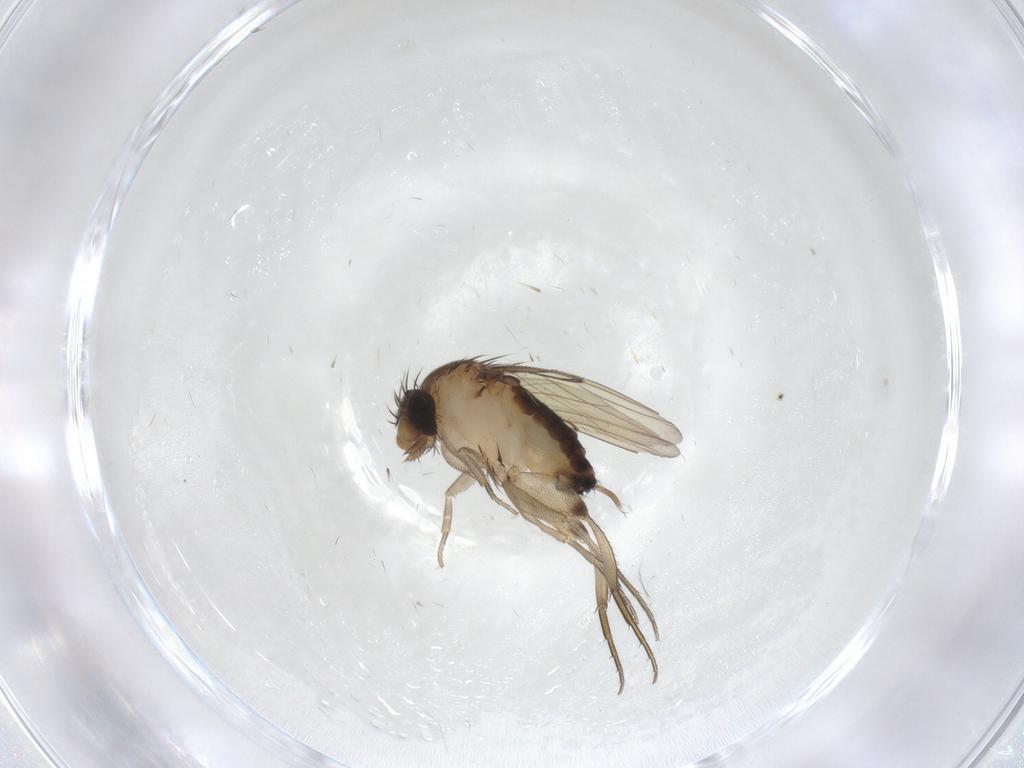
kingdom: Animalia
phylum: Arthropoda
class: Insecta
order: Diptera
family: Phoridae
